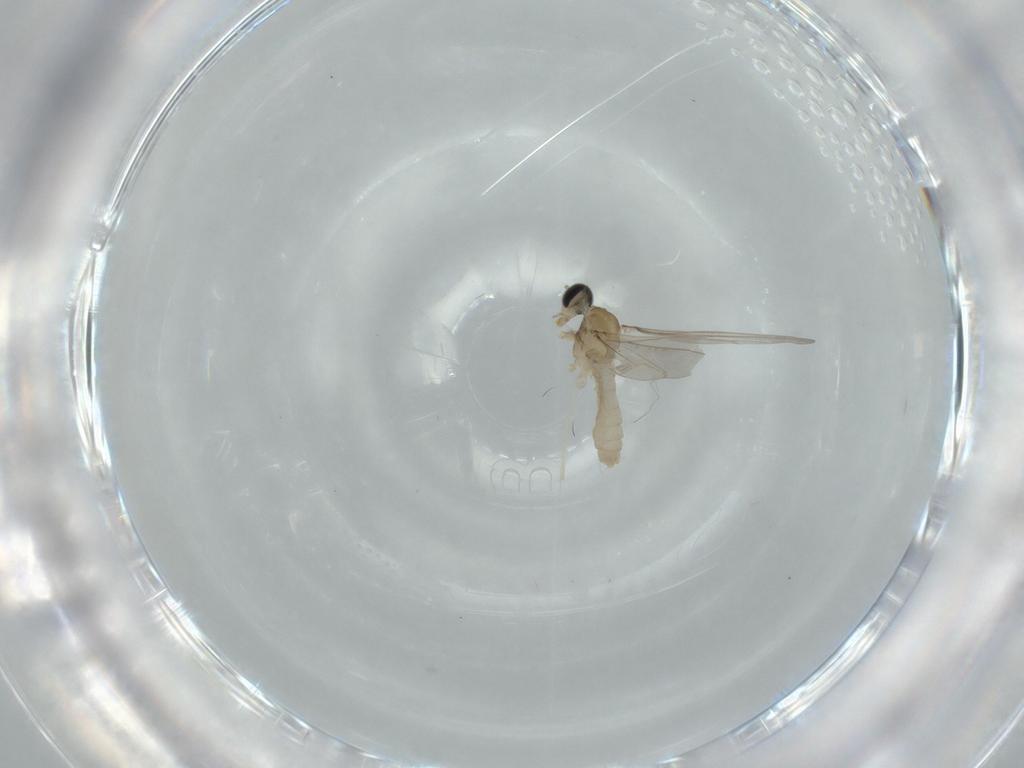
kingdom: Animalia
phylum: Arthropoda
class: Insecta
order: Diptera
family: Cecidomyiidae
